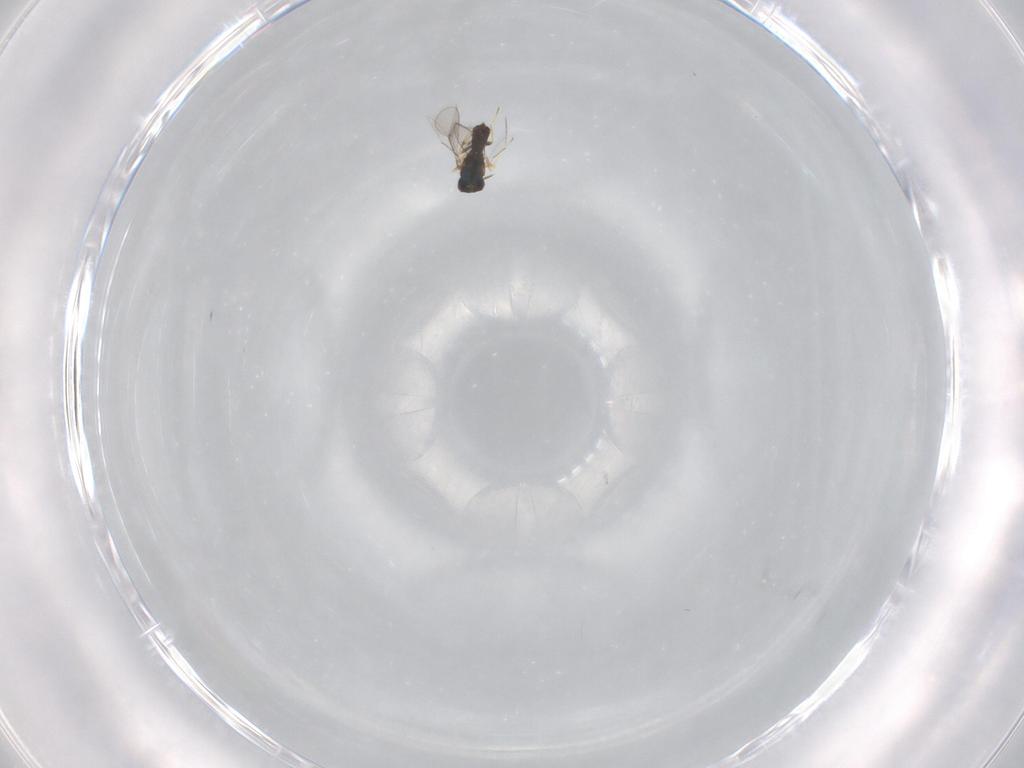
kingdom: Animalia
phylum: Arthropoda
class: Insecta
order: Hymenoptera
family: Eulophidae
